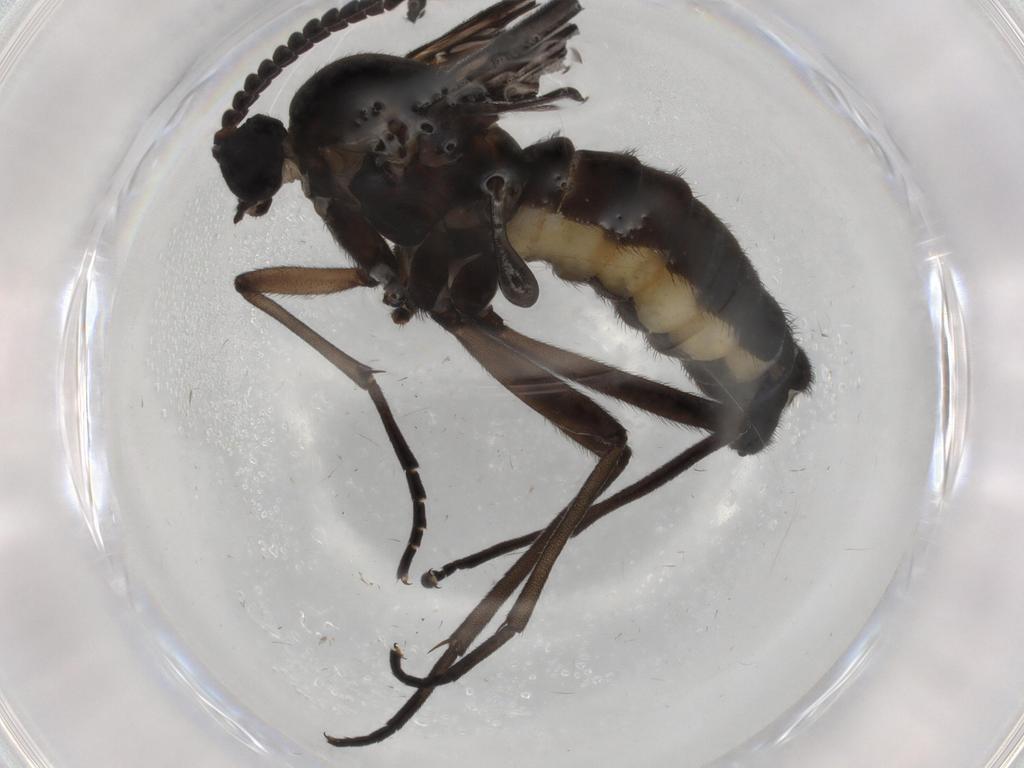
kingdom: Animalia
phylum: Arthropoda
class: Insecta
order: Diptera
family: Sciaridae
